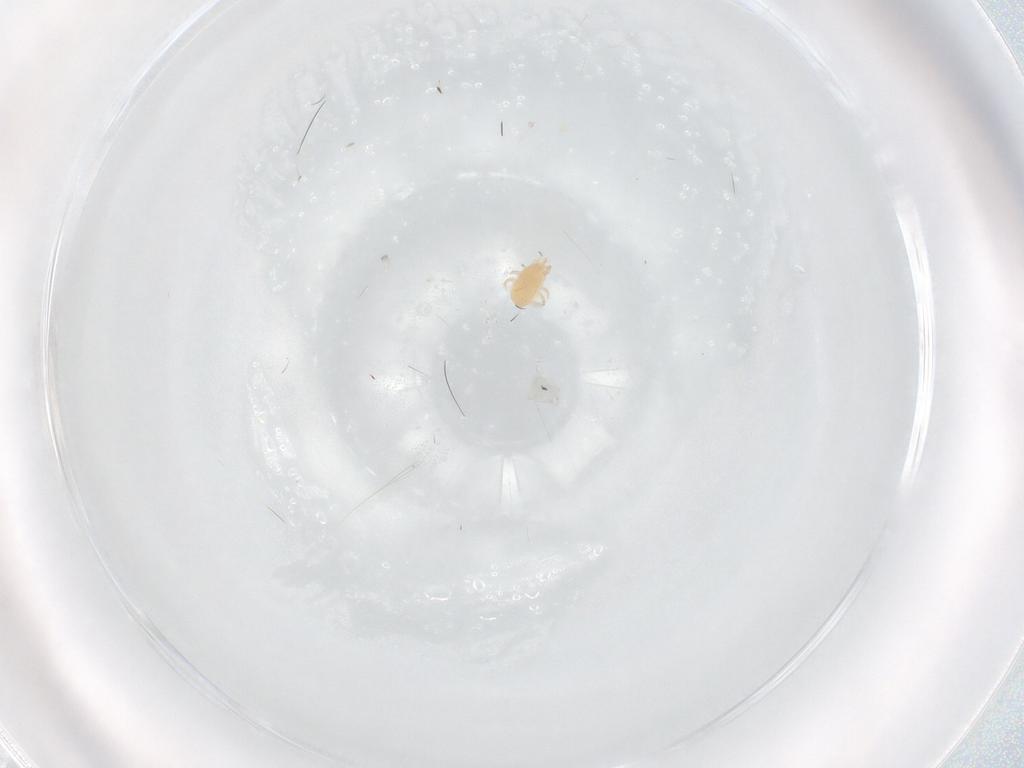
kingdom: Animalia
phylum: Arthropoda
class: Arachnida
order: Mesostigmata
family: Ascidae
